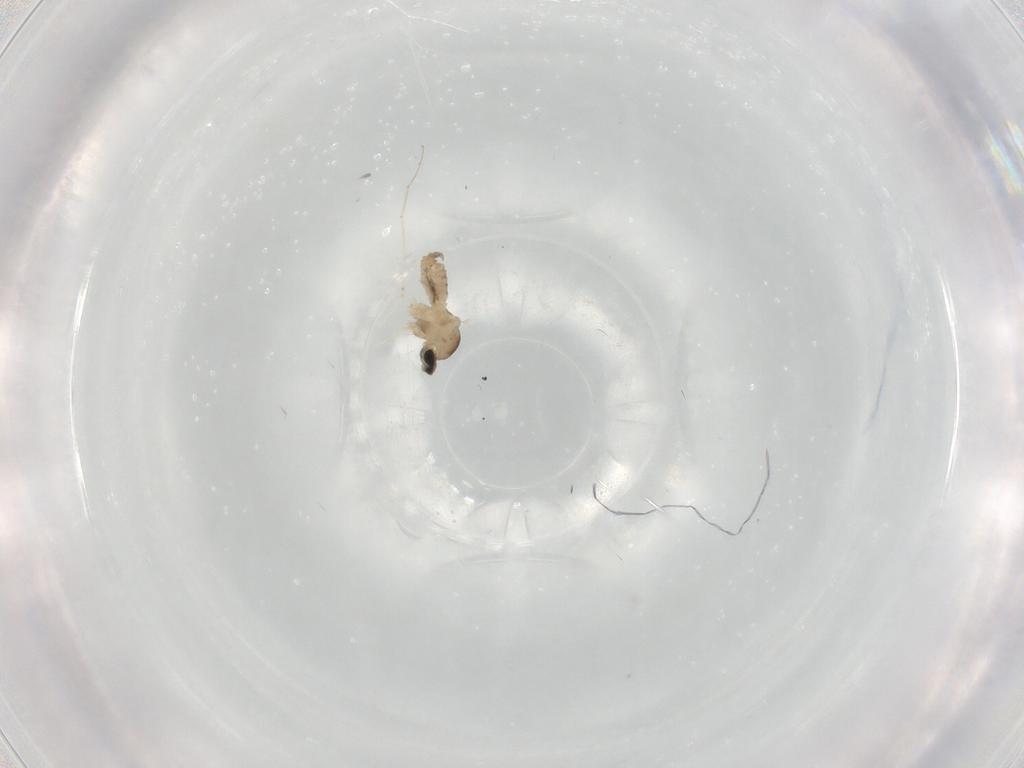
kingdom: Animalia
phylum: Arthropoda
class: Insecta
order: Diptera
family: Cecidomyiidae
